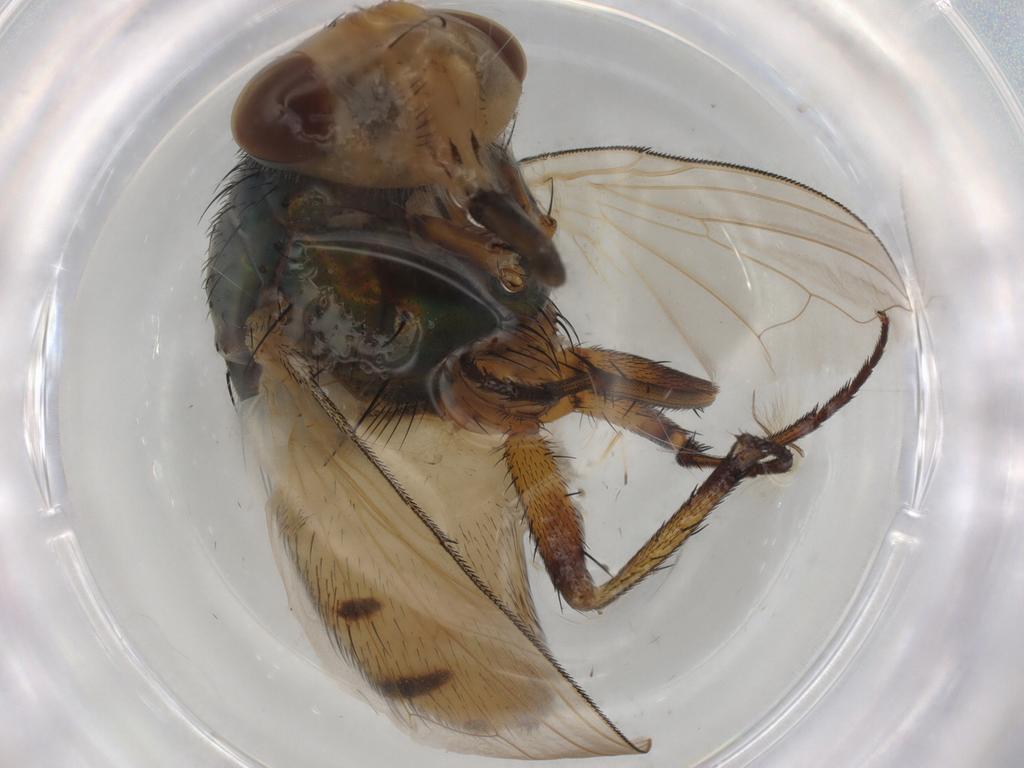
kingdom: Animalia
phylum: Arthropoda
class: Insecta
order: Diptera
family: Calliphoridae
